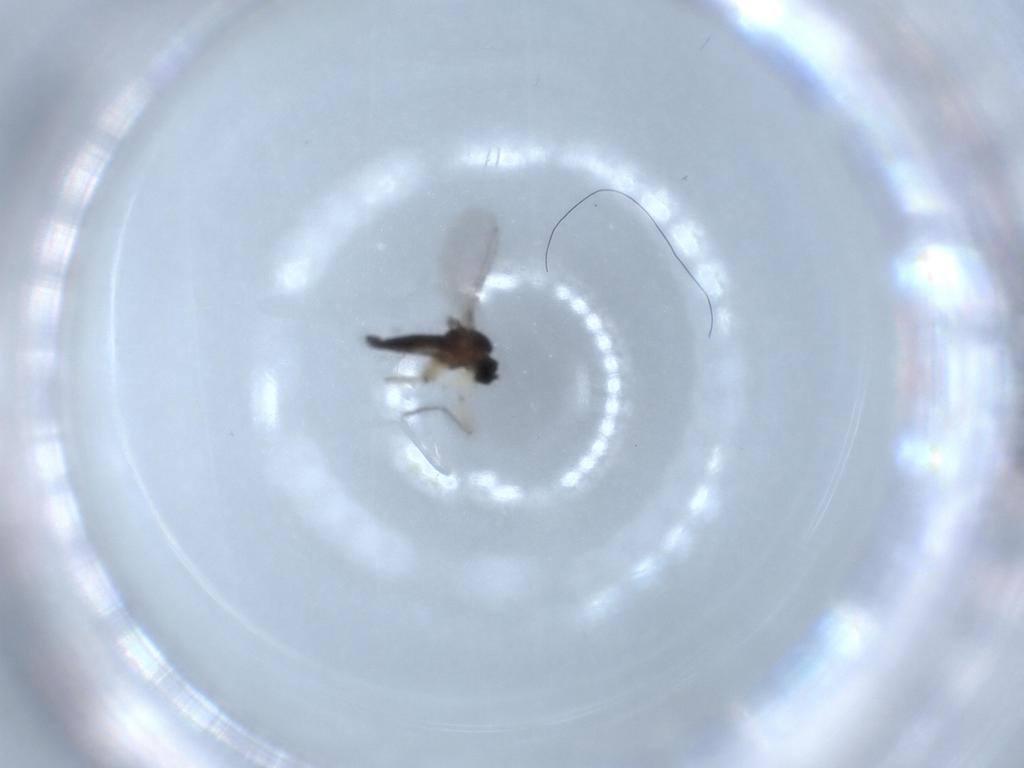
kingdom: Animalia
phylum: Arthropoda
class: Insecta
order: Diptera
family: Sciaridae
